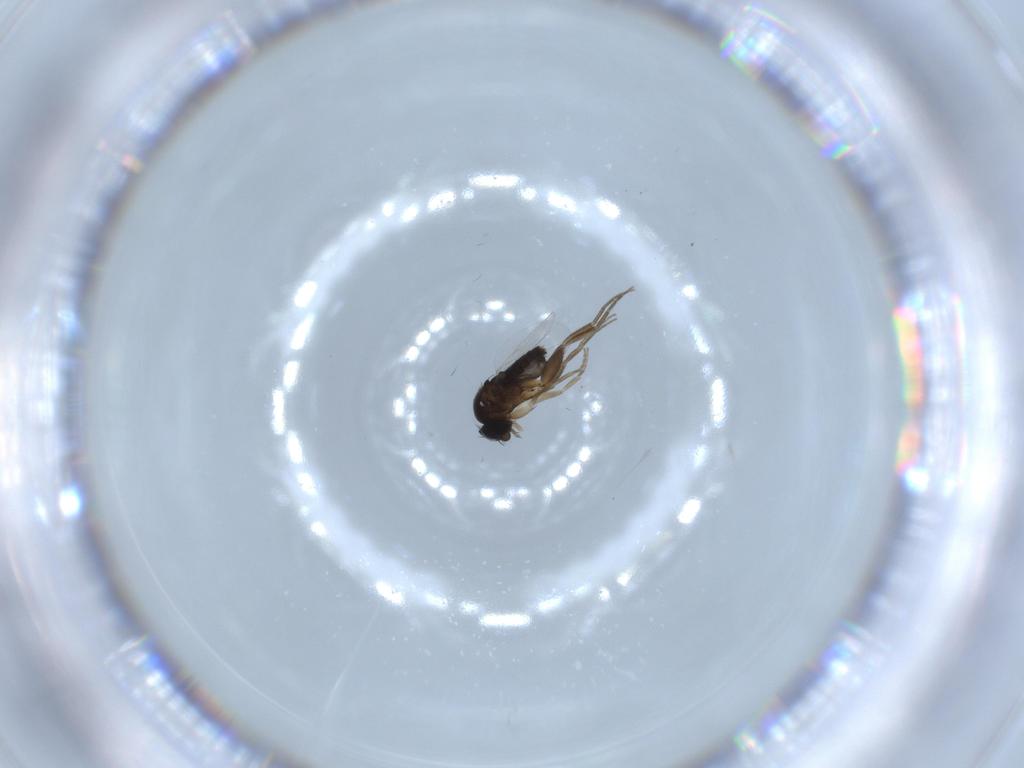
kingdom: Animalia
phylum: Arthropoda
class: Insecta
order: Diptera
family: Phoridae
